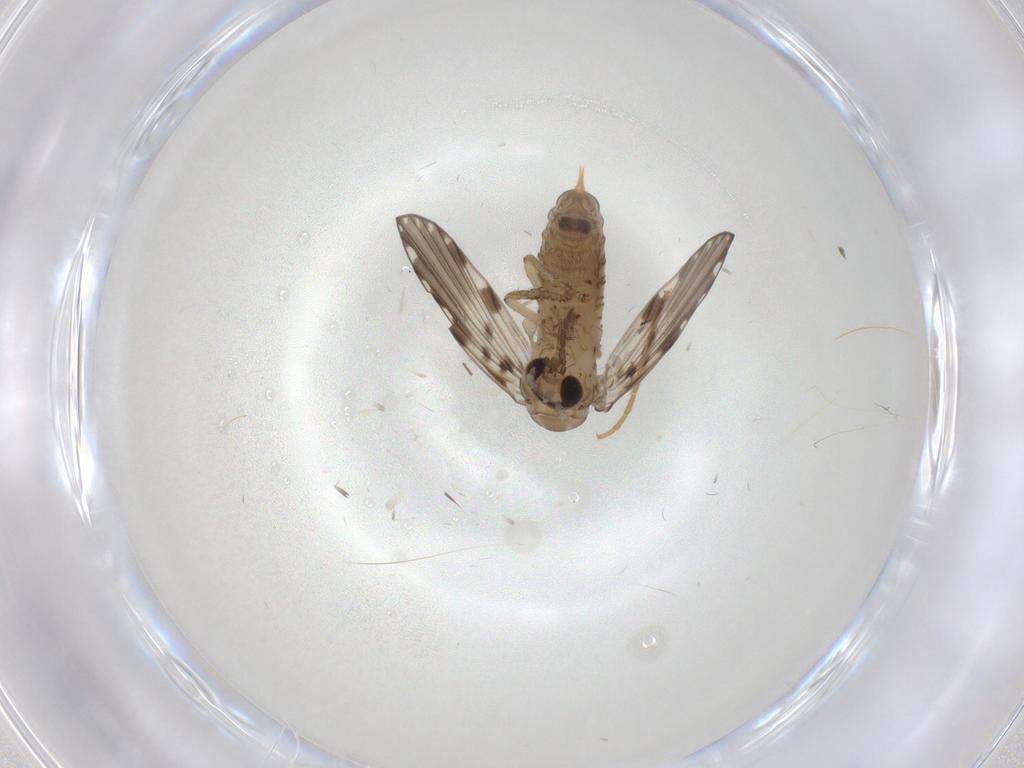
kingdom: Animalia
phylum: Arthropoda
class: Insecta
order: Diptera
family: Psychodidae
